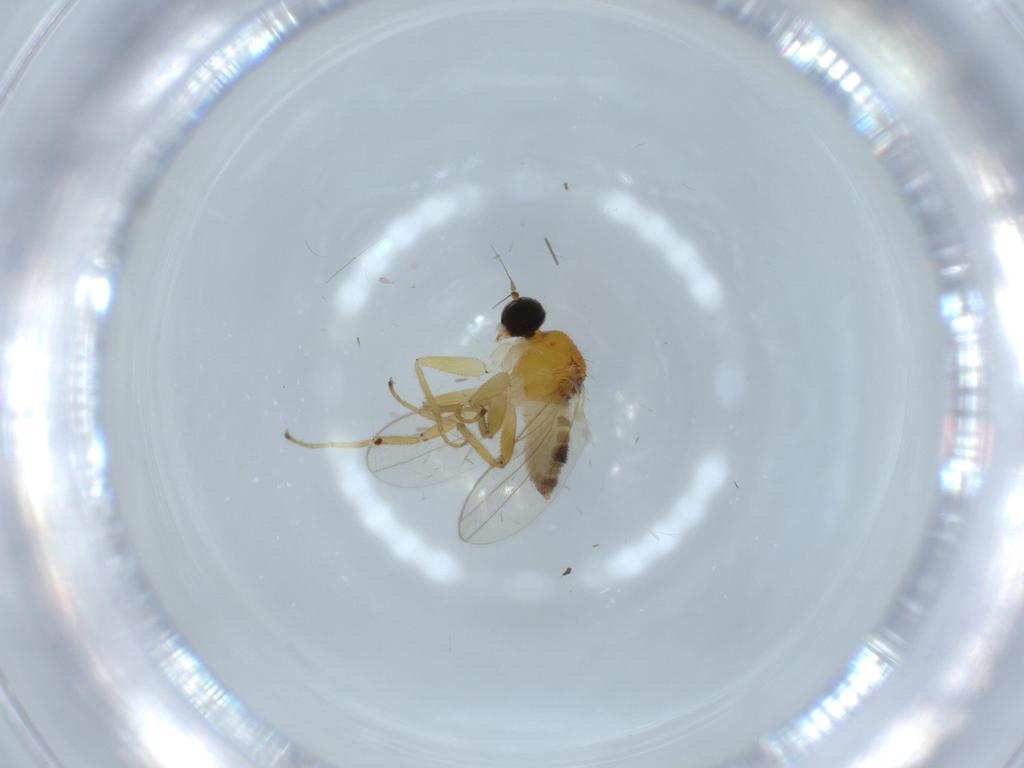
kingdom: Animalia
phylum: Arthropoda
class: Insecta
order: Diptera
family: Hybotidae
